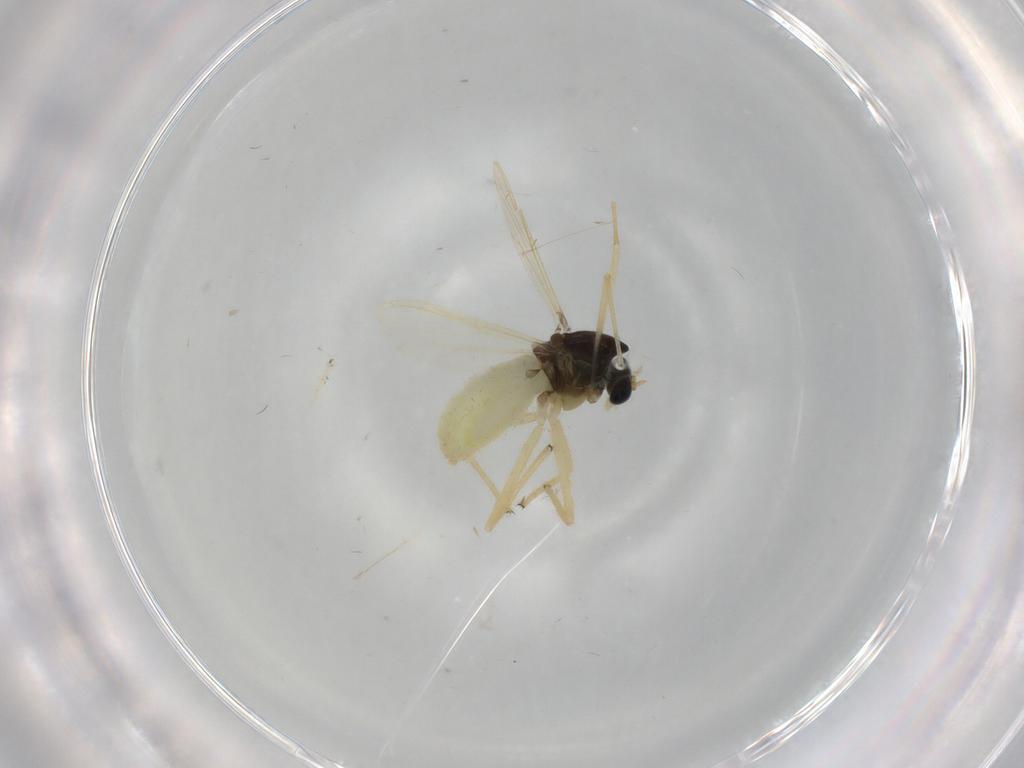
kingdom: Animalia
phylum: Arthropoda
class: Insecta
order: Diptera
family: Chironomidae
